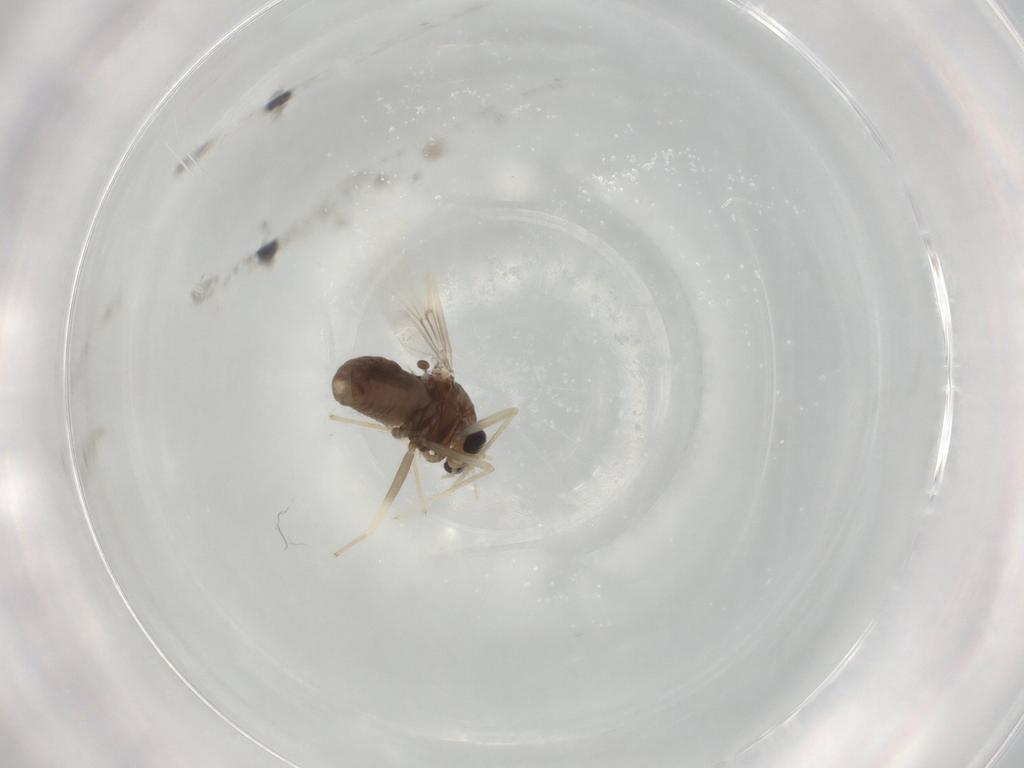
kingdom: Animalia
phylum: Arthropoda
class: Insecta
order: Diptera
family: Chironomidae
